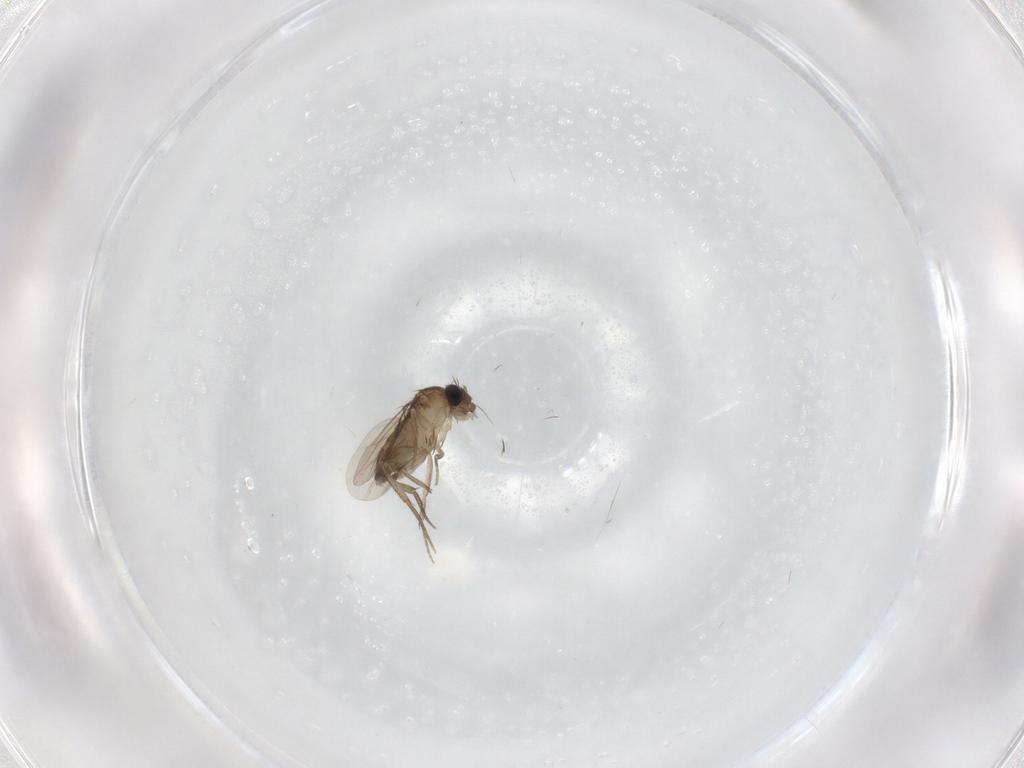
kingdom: Animalia
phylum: Arthropoda
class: Insecta
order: Diptera
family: Phoridae
